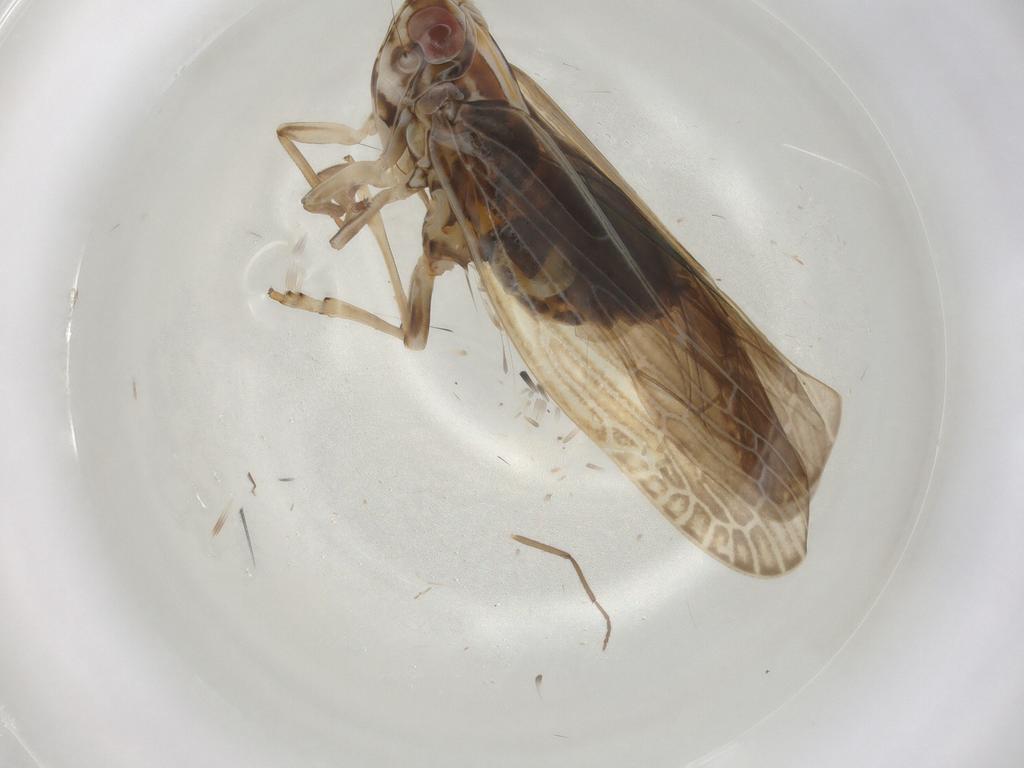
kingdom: Animalia
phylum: Arthropoda
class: Insecta
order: Hemiptera
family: Achilidae
